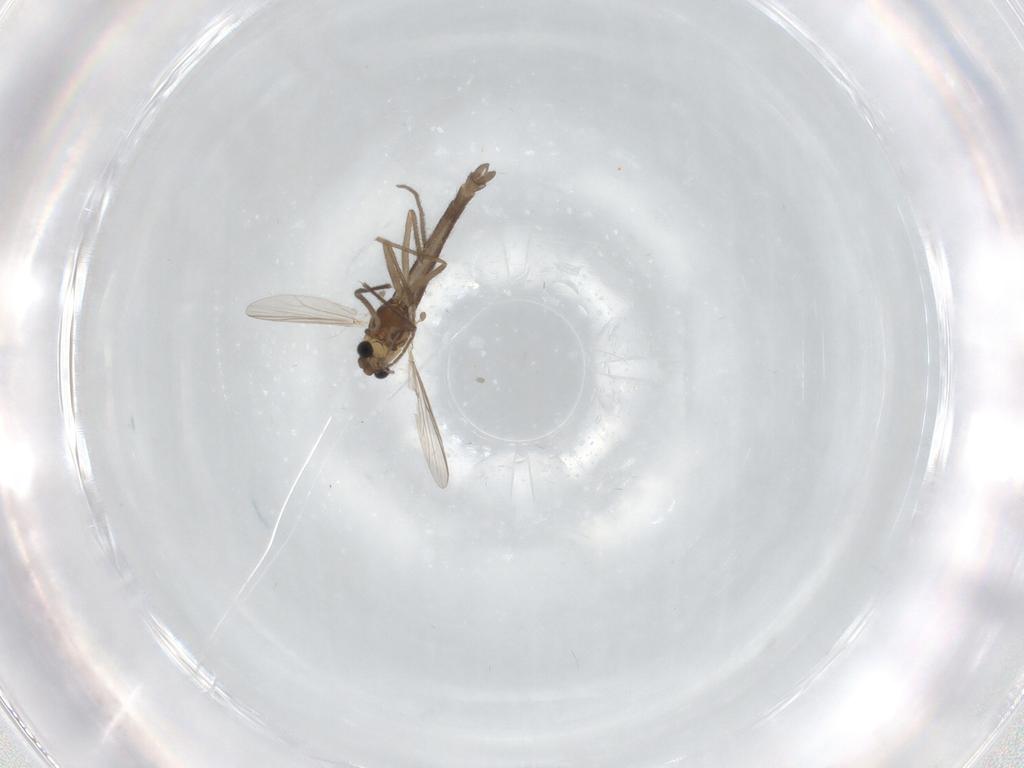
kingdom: Animalia
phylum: Arthropoda
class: Insecta
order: Diptera
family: Chironomidae
